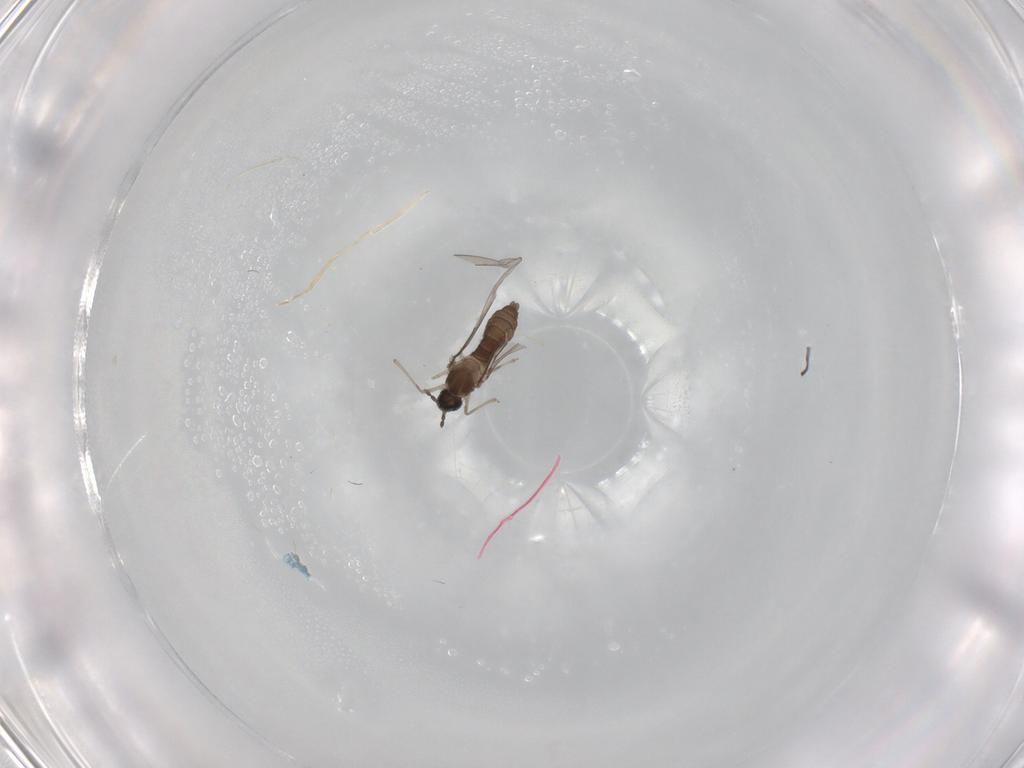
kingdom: Animalia
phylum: Arthropoda
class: Insecta
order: Diptera
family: Cecidomyiidae
